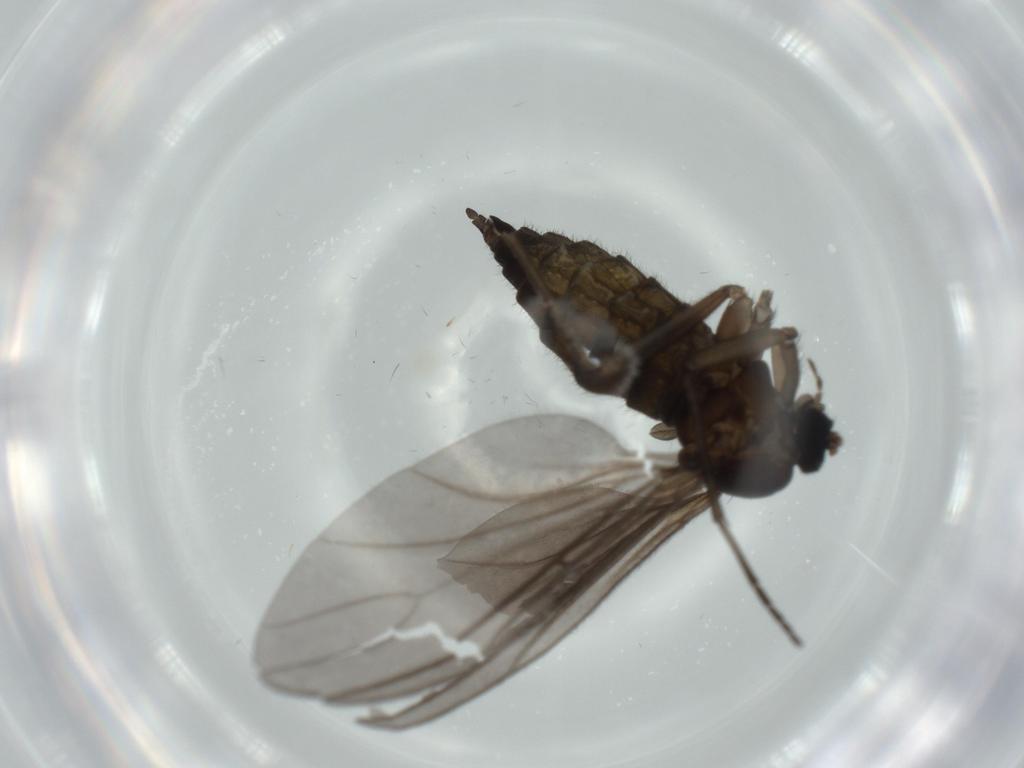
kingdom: Animalia
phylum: Arthropoda
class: Insecta
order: Diptera
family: Sciaridae
